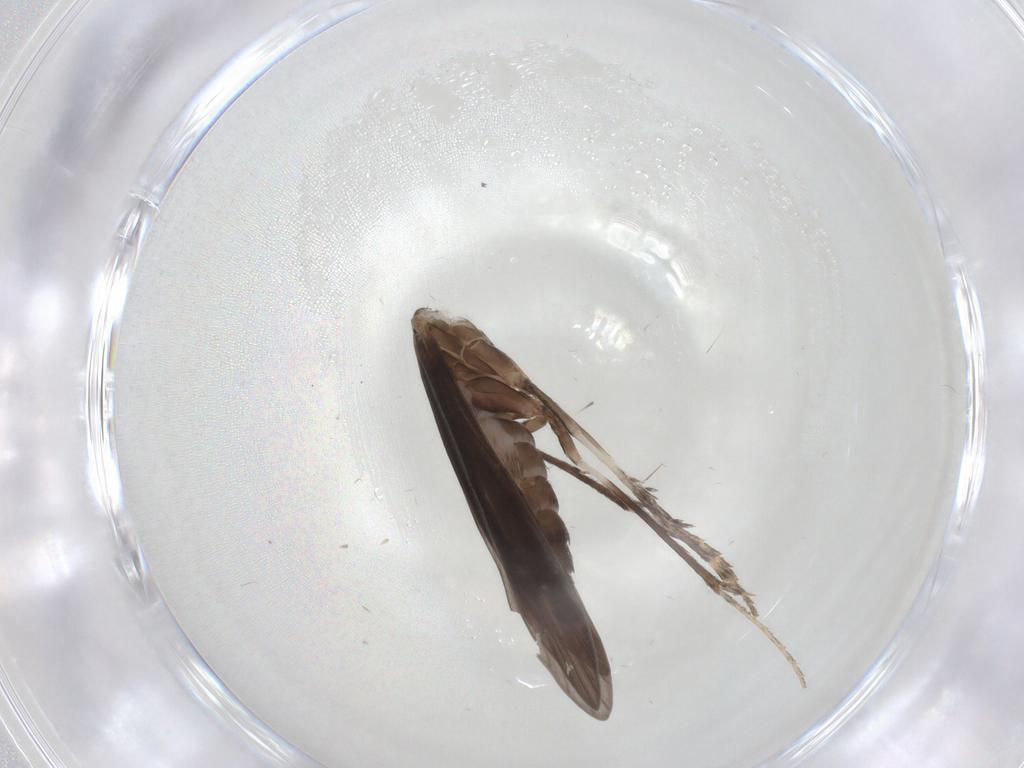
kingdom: Animalia
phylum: Arthropoda
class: Insecta
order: Trichoptera
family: Xiphocentronidae
